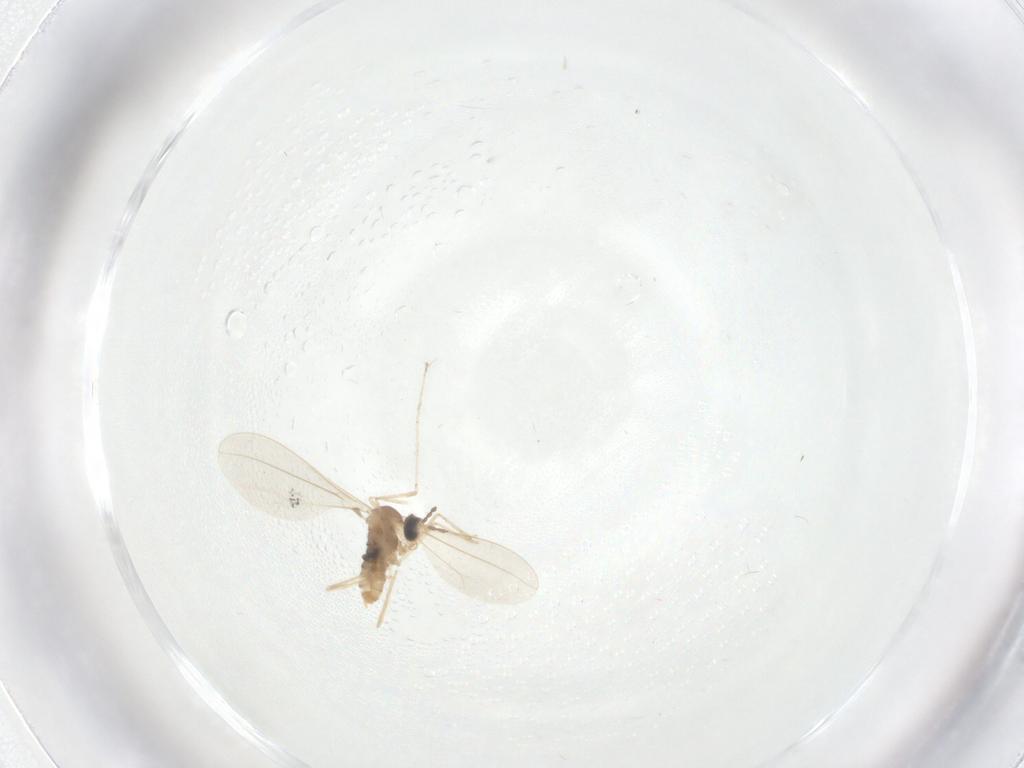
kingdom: Animalia
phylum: Arthropoda
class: Insecta
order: Diptera
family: Cecidomyiidae
